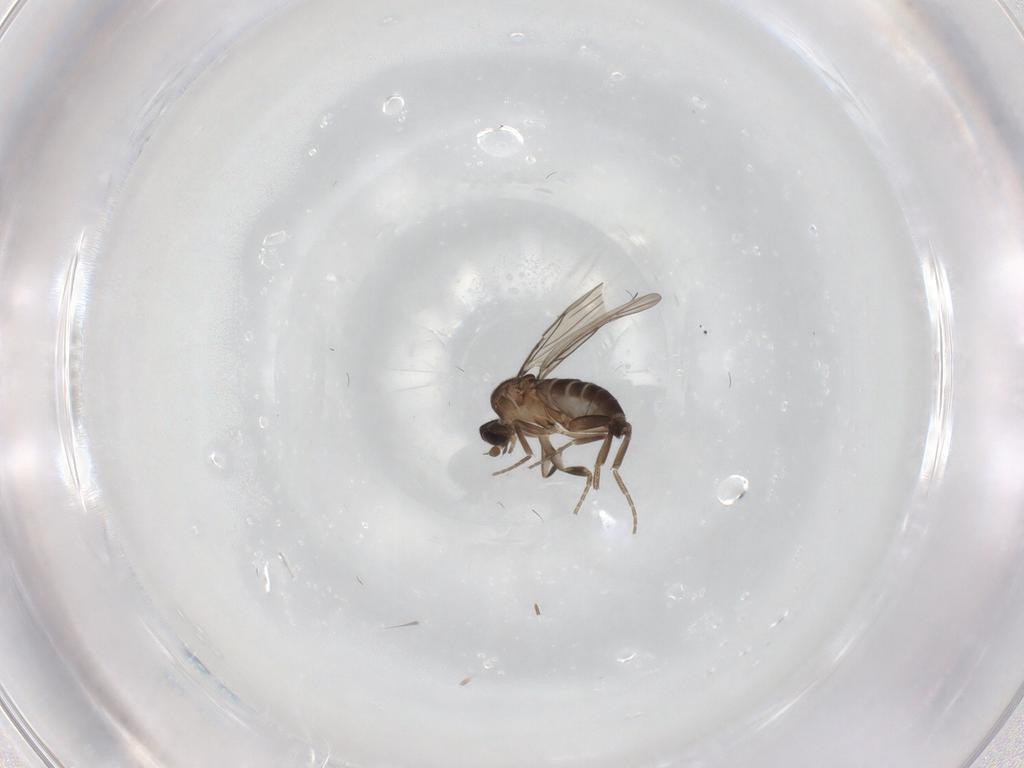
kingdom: Animalia
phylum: Arthropoda
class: Insecta
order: Diptera
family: Phoridae
